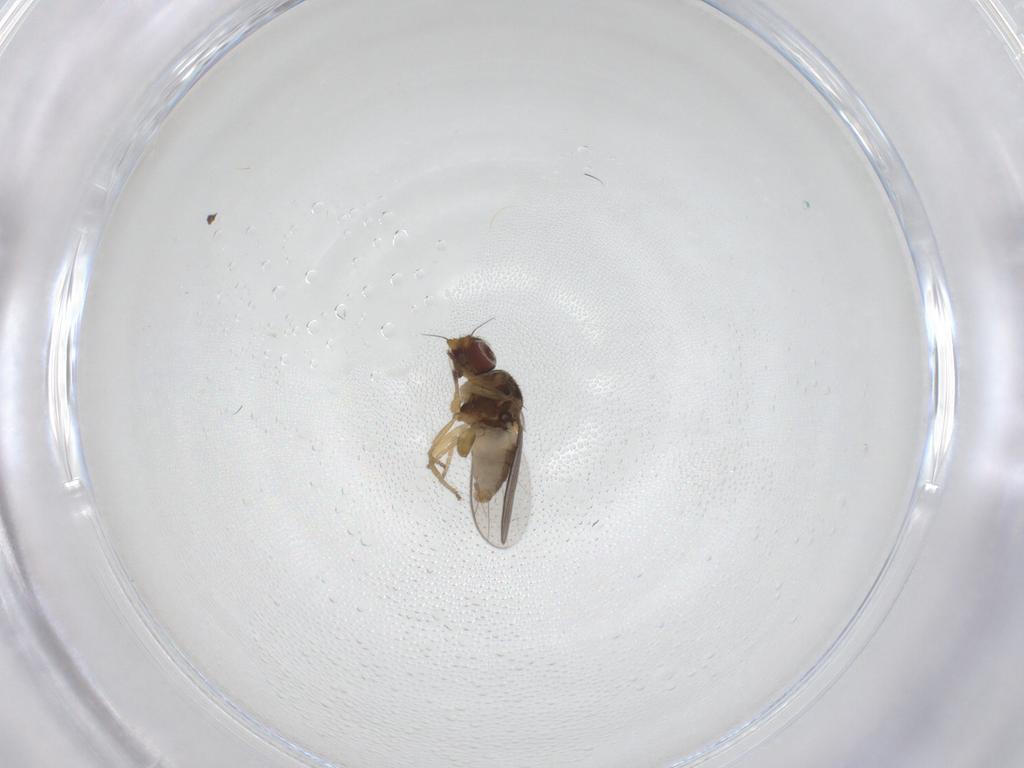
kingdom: Animalia
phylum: Arthropoda
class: Insecta
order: Diptera
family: Chloropidae
